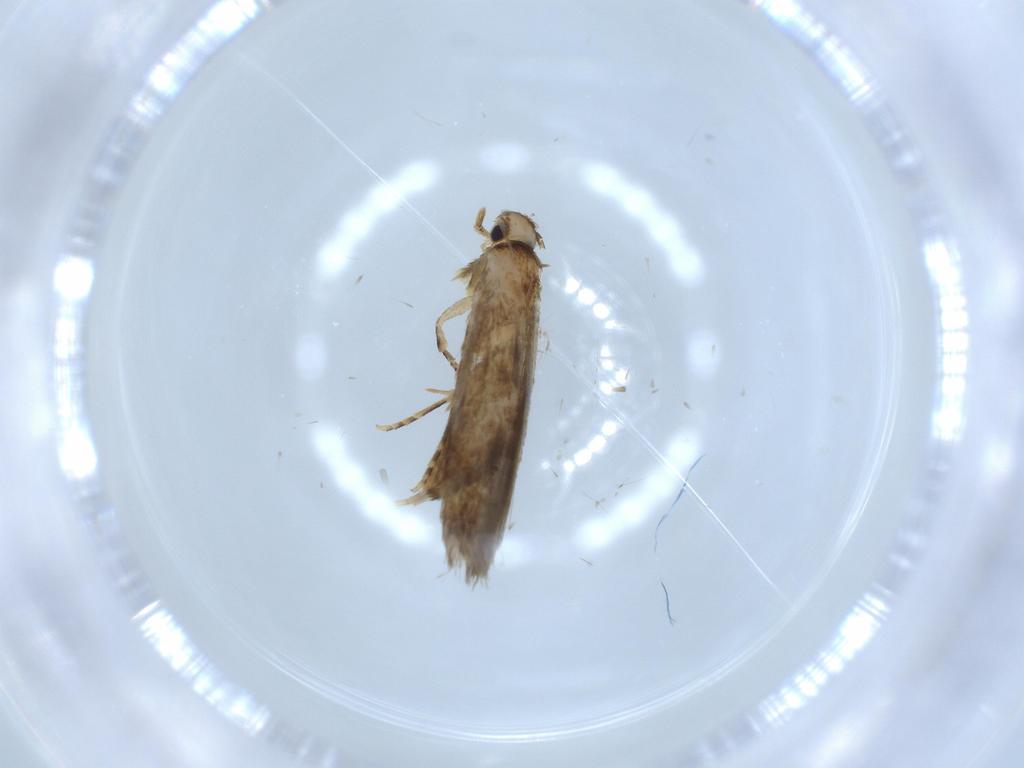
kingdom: Animalia
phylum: Arthropoda
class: Insecta
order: Lepidoptera
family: Tineidae
